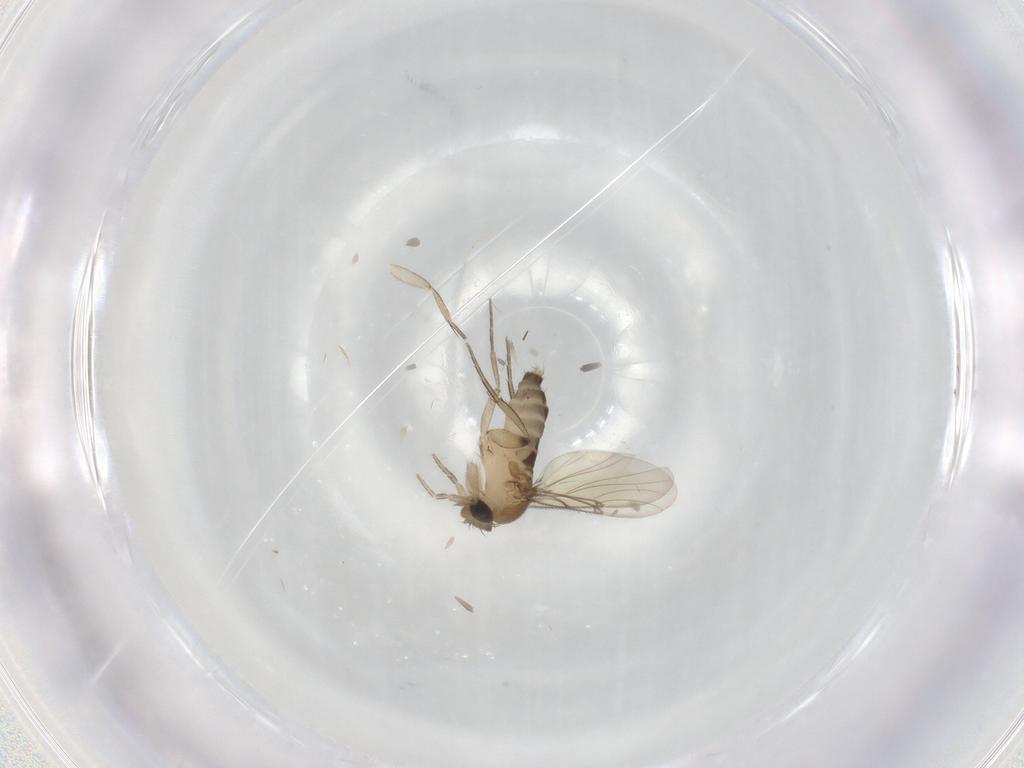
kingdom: Animalia
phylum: Arthropoda
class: Insecta
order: Diptera
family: Phoridae
